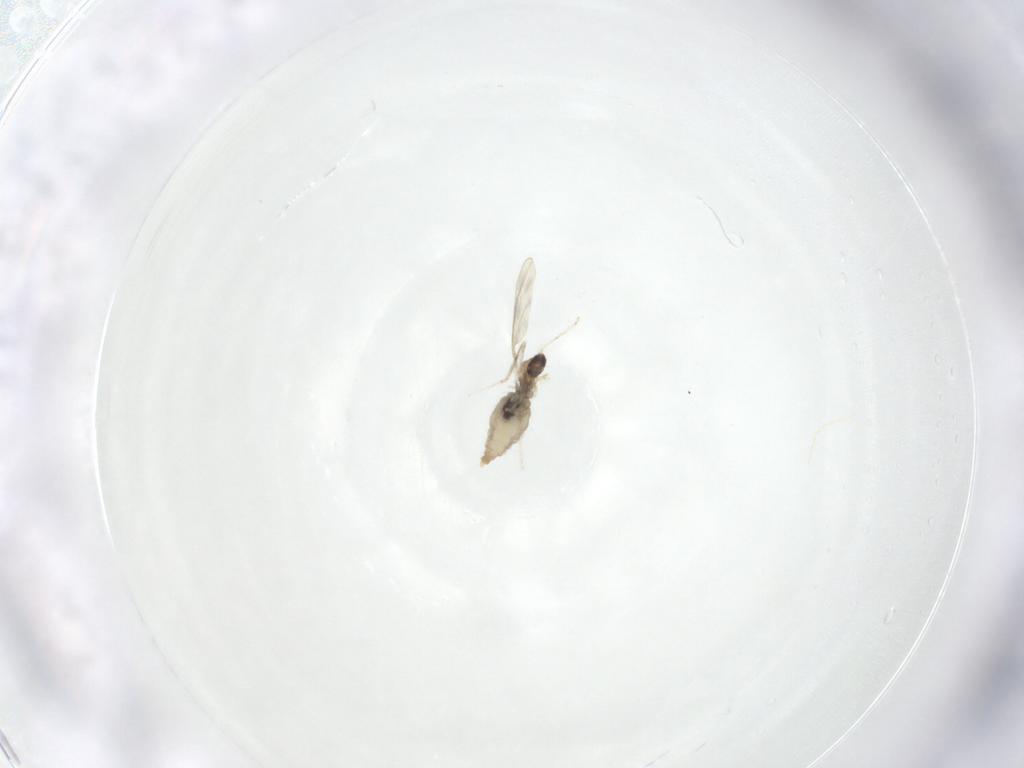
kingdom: Animalia
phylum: Arthropoda
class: Insecta
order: Diptera
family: Cecidomyiidae
